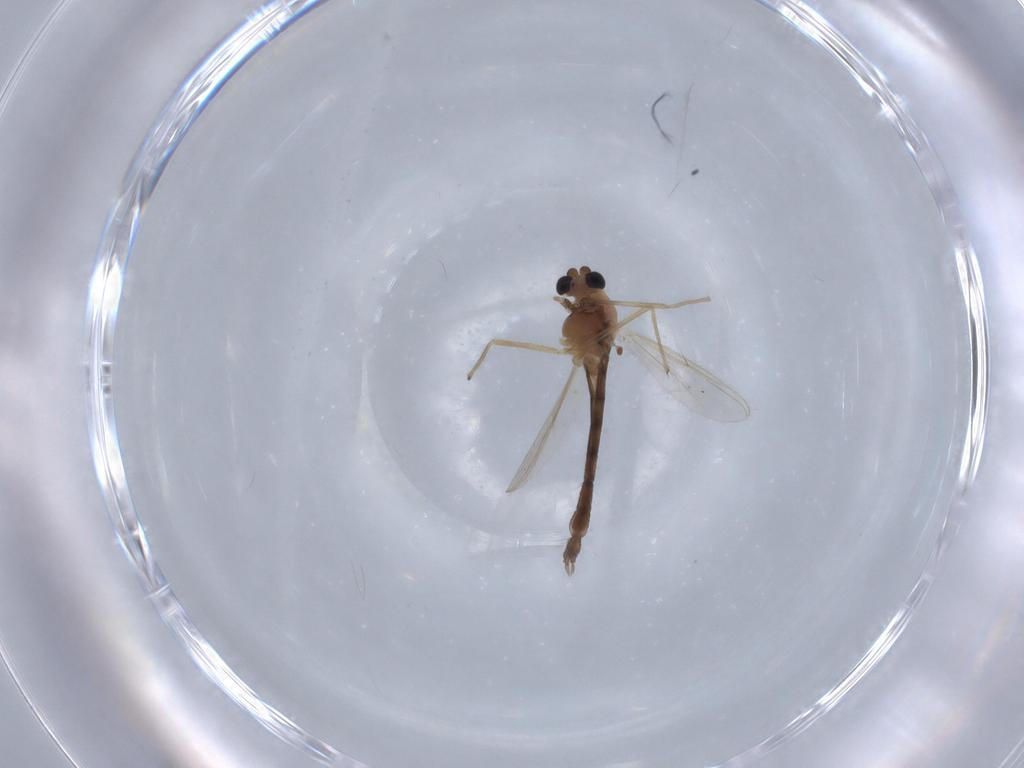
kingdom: Animalia
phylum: Arthropoda
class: Insecta
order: Diptera
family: Chironomidae
